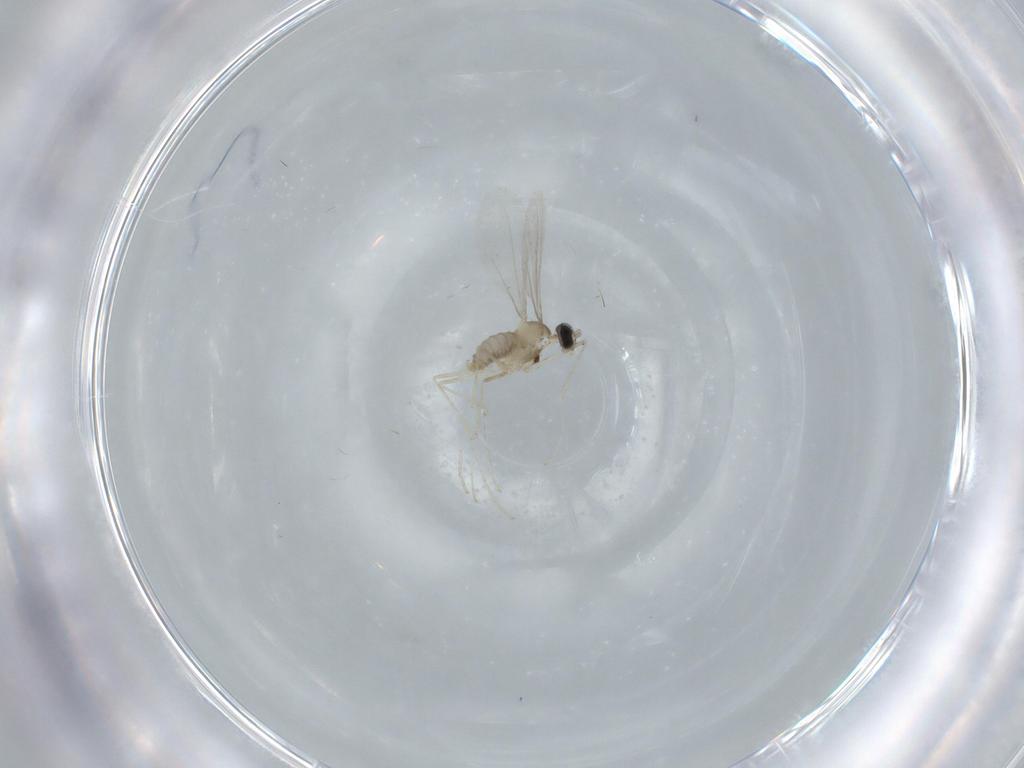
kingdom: Animalia
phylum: Arthropoda
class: Insecta
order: Diptera
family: Cecidomyiidae
